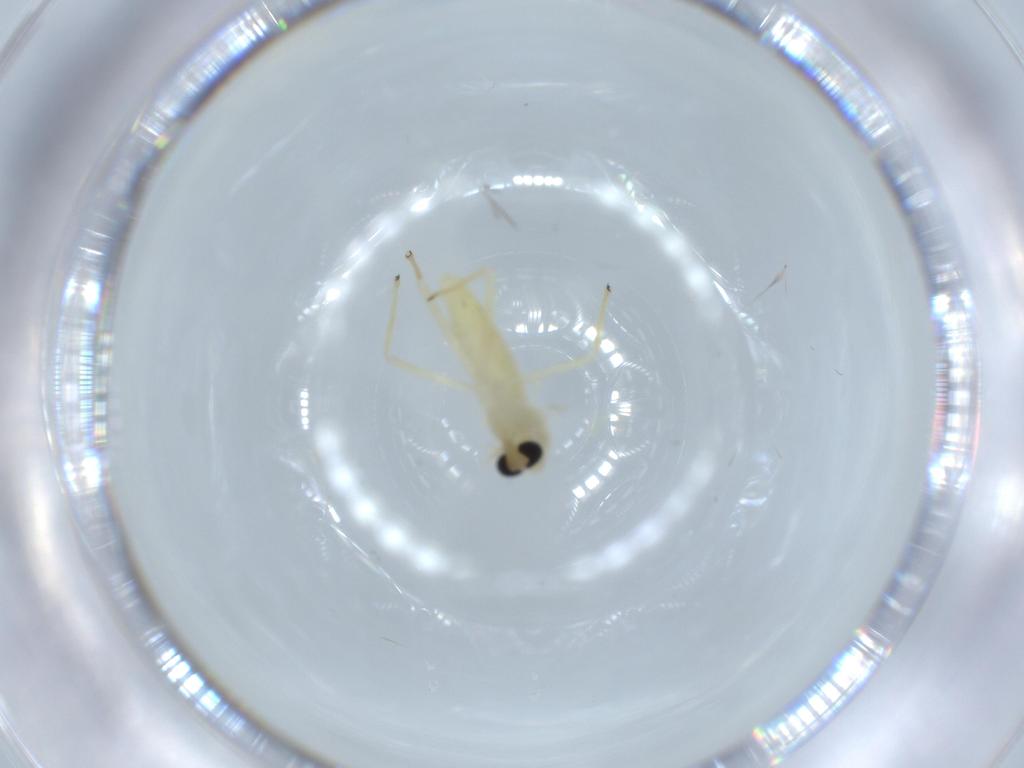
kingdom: Animalia
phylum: Arthropoda
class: Insecta
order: Diptera
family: Chironomidae
